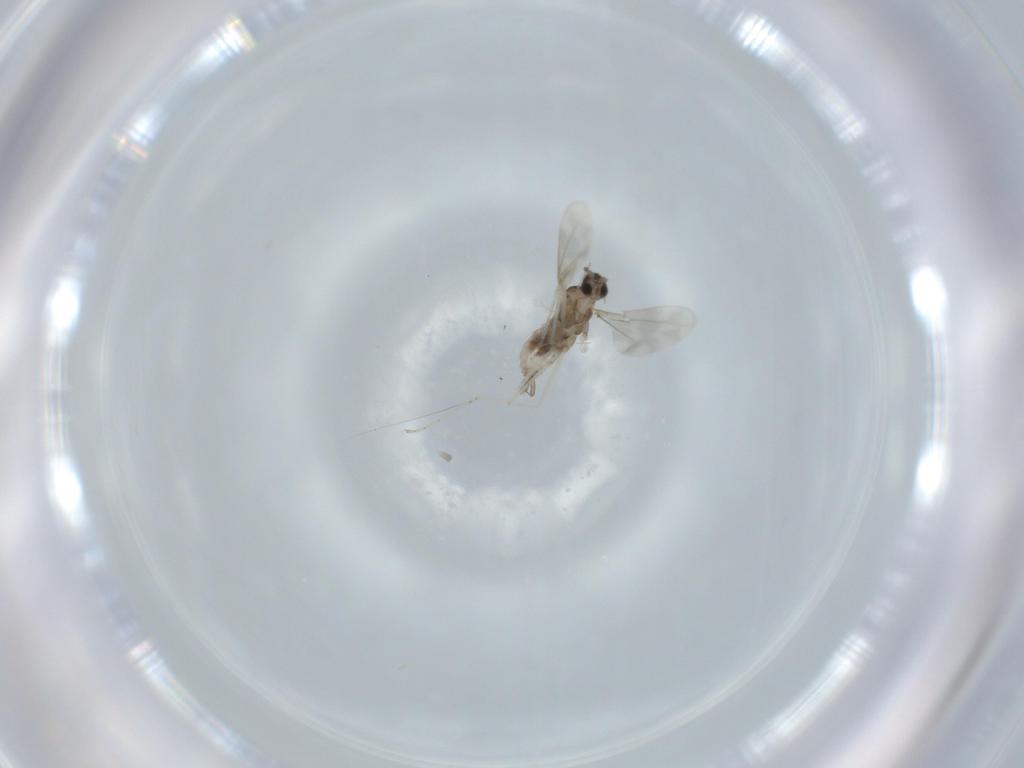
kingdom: Animalia
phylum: Arthropoda
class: Insecta
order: Diptera
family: Cecidomyiidae
